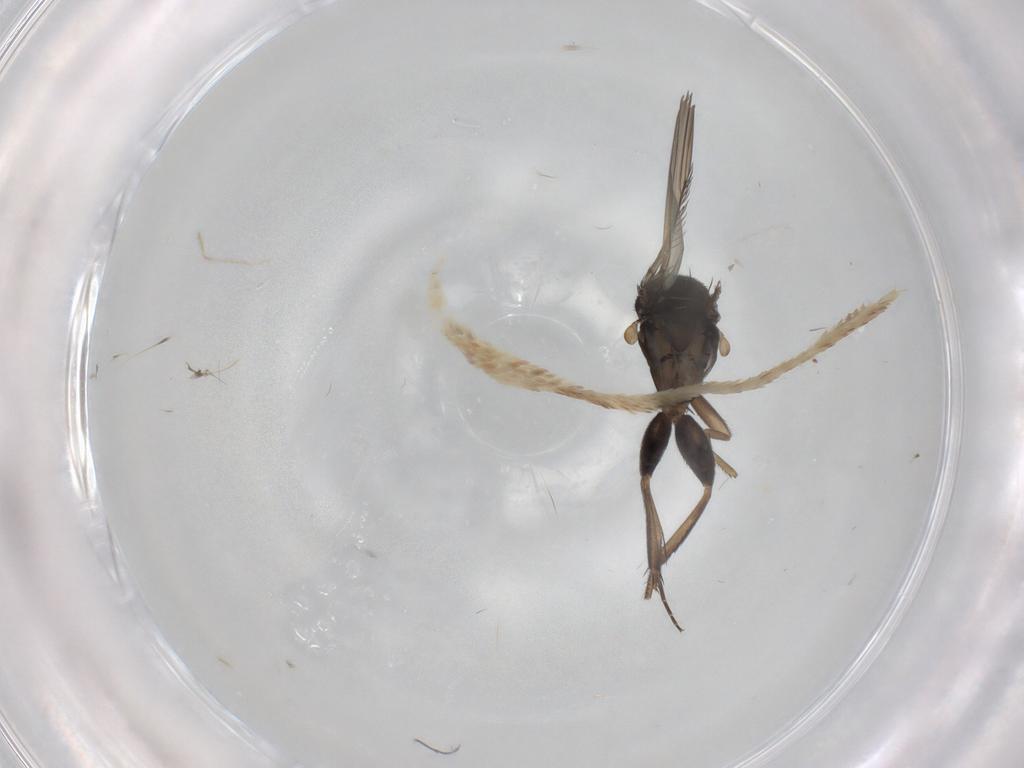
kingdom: Animalia
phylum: Arthropoda
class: Insecta
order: Diptera
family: Phoridae
